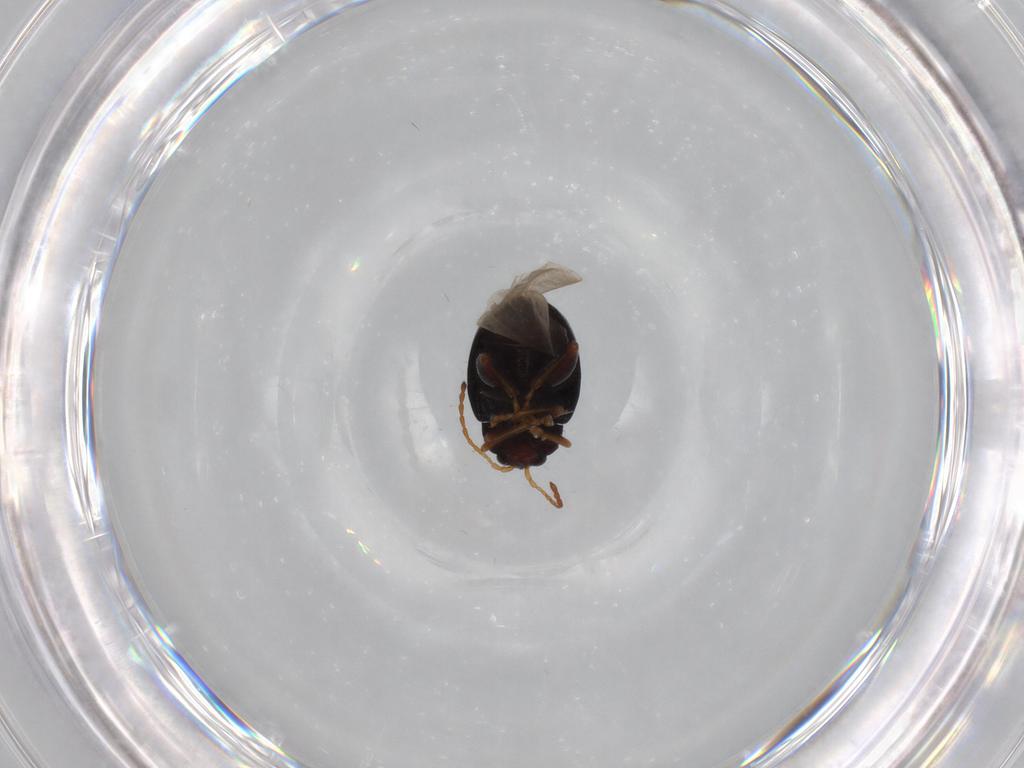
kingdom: Animalia
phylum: Arthropoda
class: Insecta
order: Coleoptera
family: Chrysomelidae
